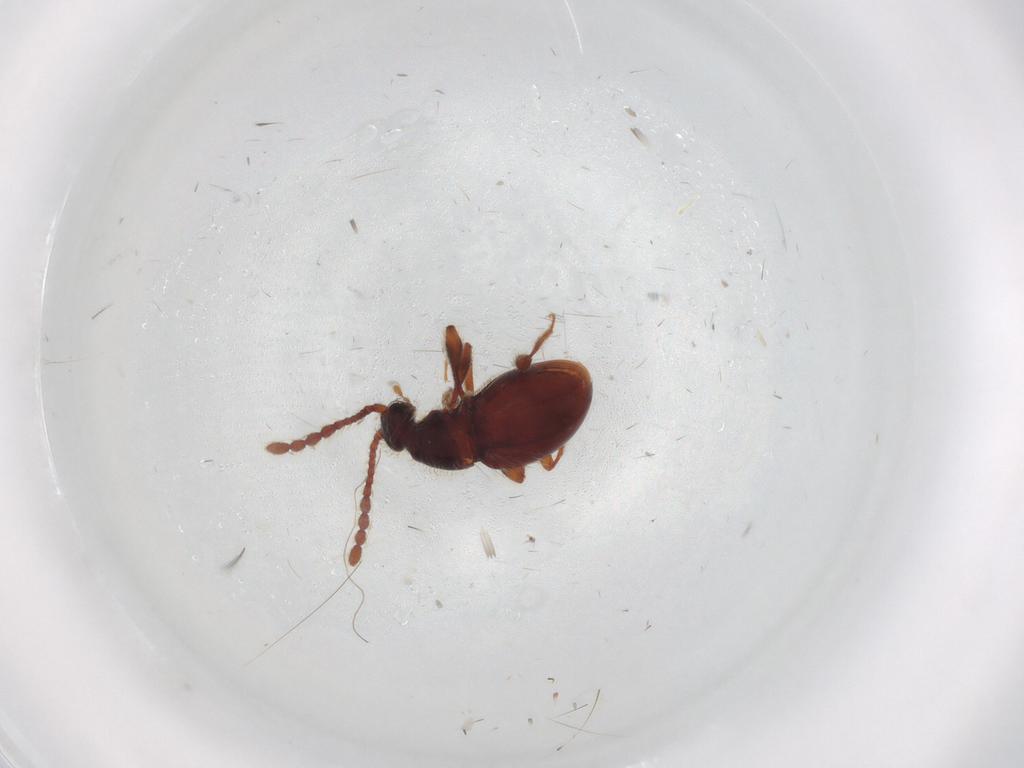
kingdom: Animalia
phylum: Arthropoda
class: Insecta
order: Coleoptera
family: Staphylinidae
